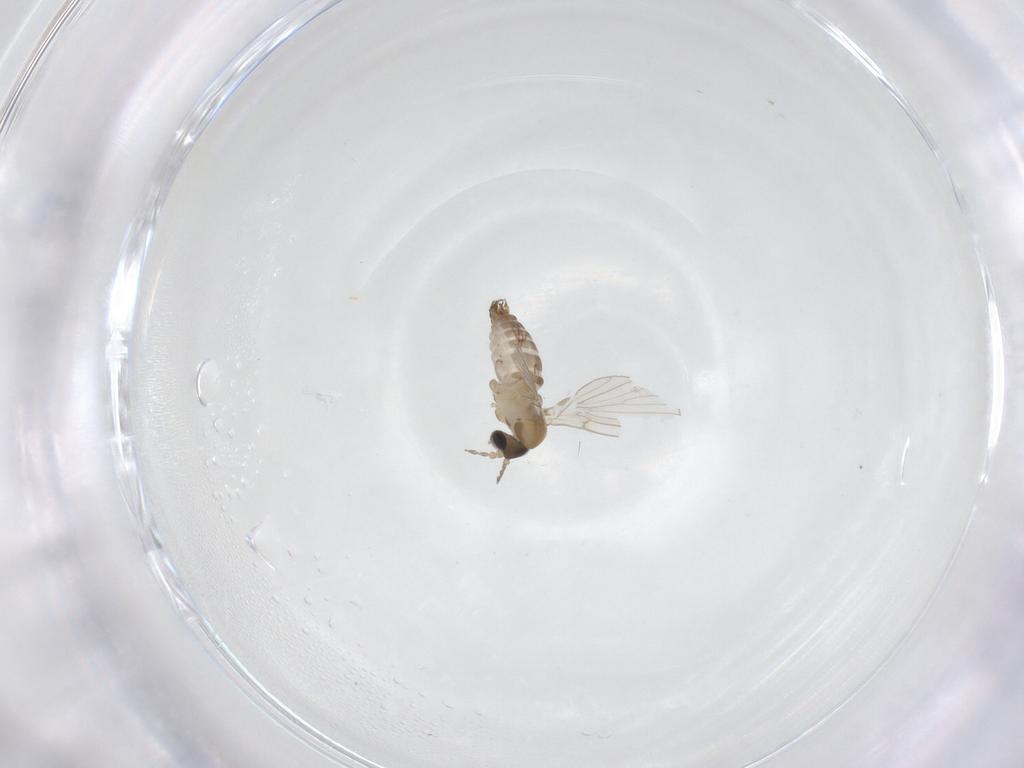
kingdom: Animalia
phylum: Arthropoda
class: Insecta
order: Diptera
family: Psychodidae
